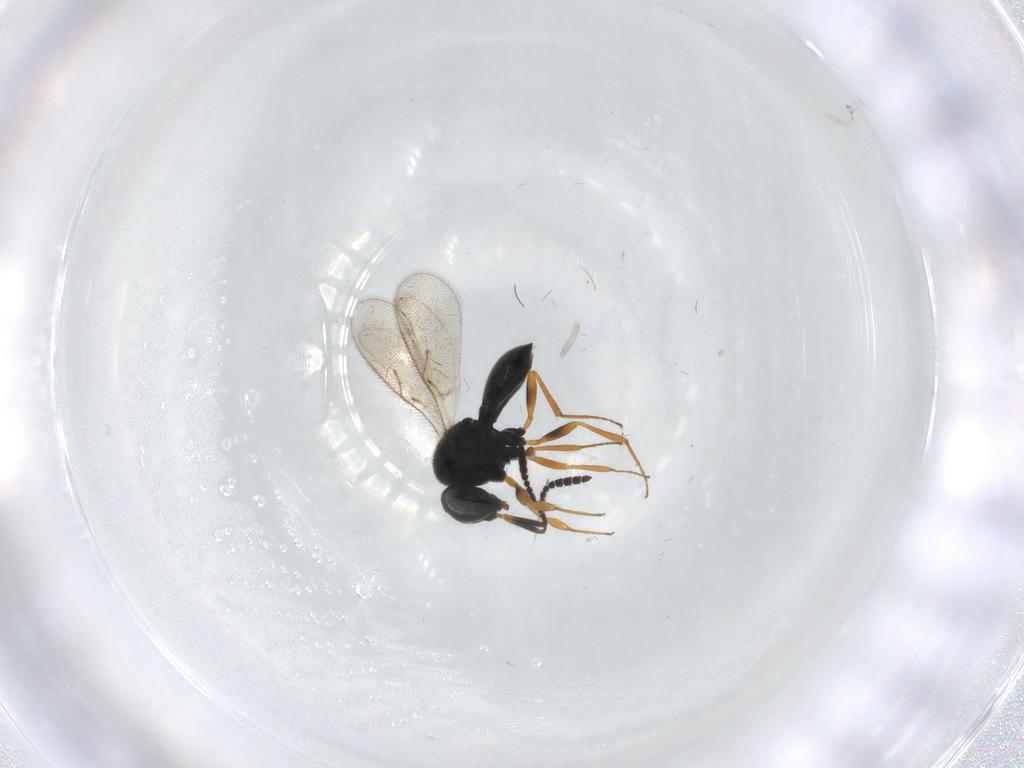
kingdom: Animalia
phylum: Arthropoda
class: Insecta
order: Hymenoptera
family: Scelionidae
